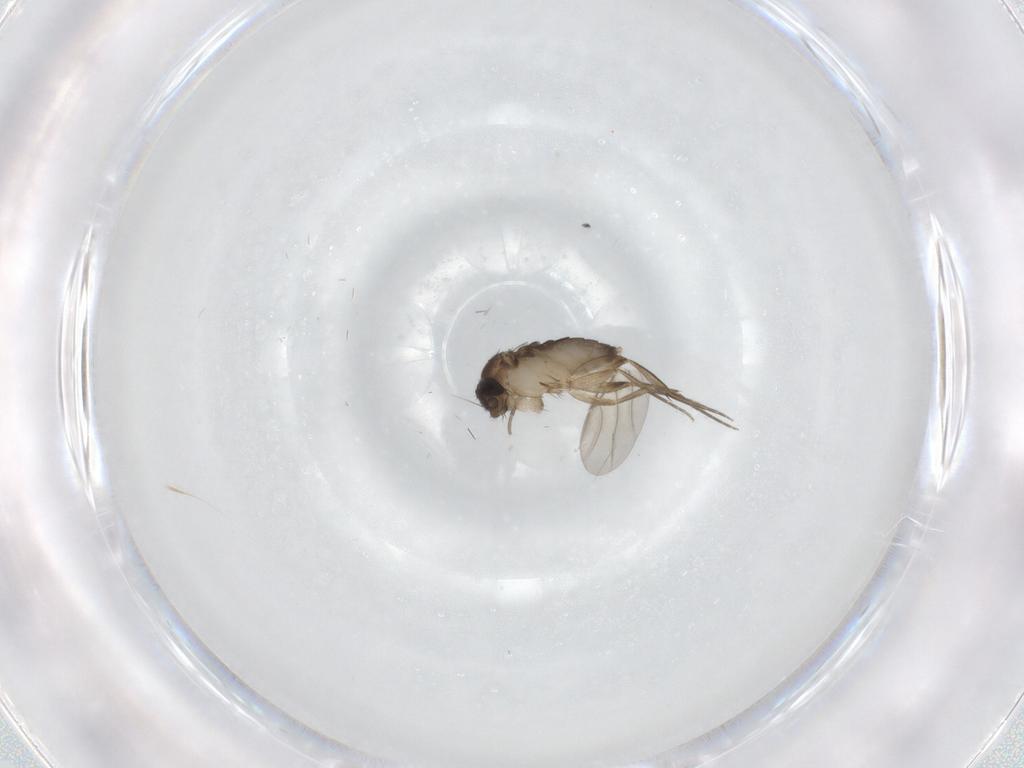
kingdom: Animalia
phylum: Arthropoda
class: Insecta
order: Diptera
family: Phoridae
